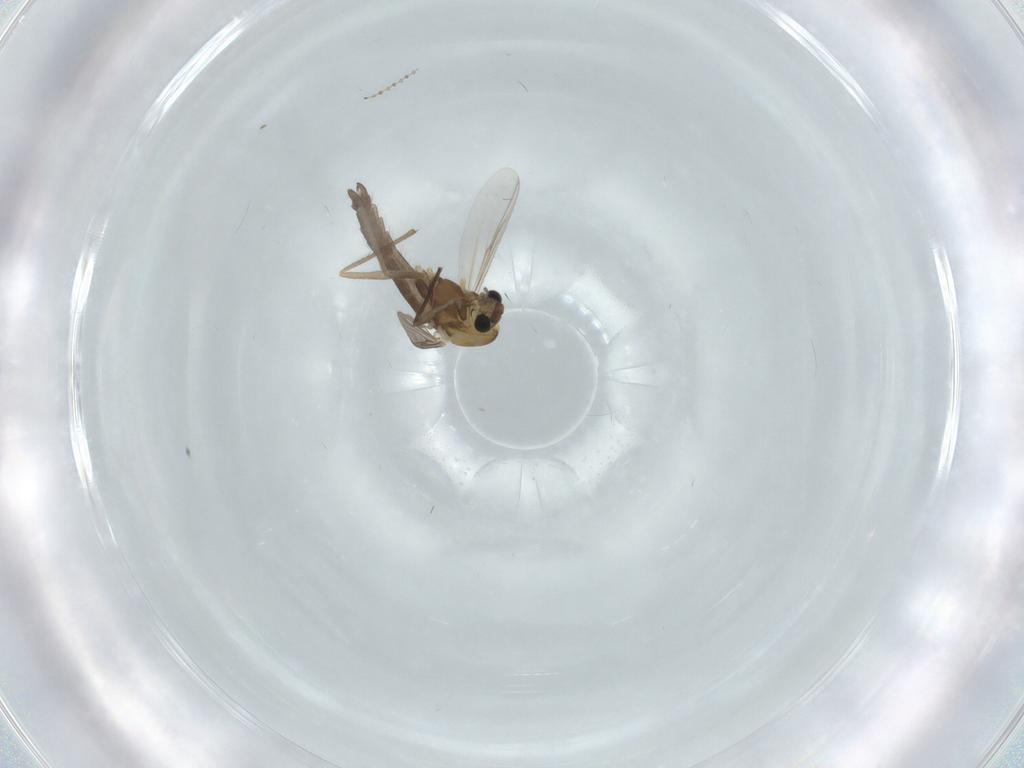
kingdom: Animalia
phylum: Arthropoda
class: Insecta
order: Diptera
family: Chironomidae
